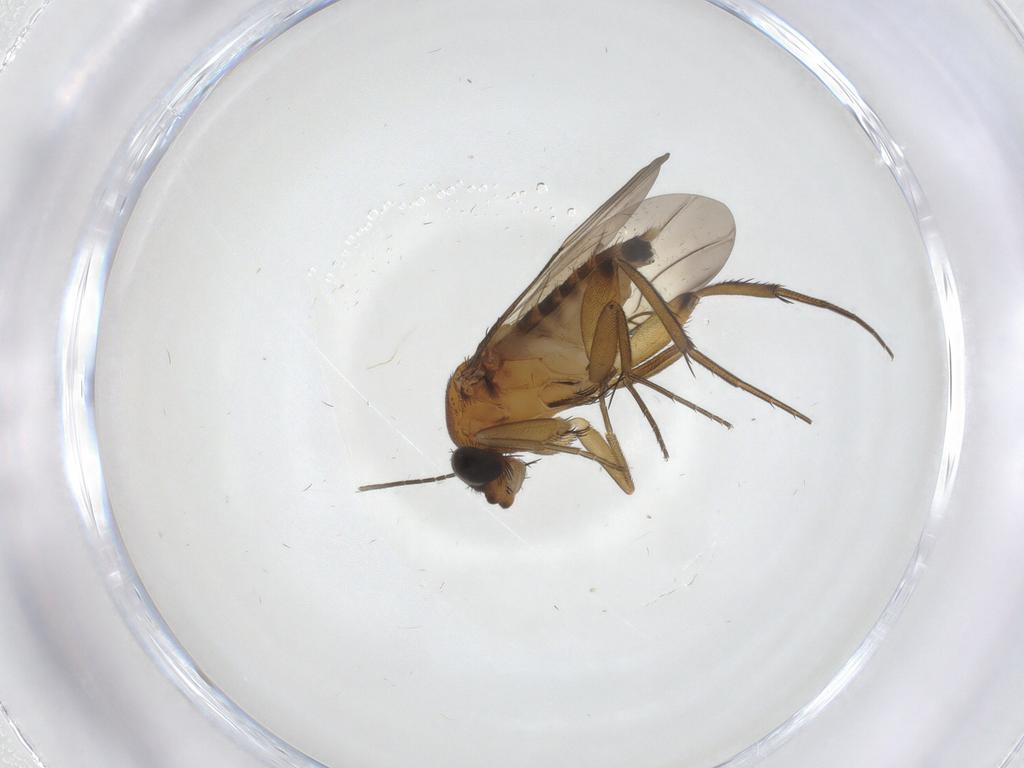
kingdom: Animalia
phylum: Arthropoda
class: Insecta
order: Diptera
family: Phoridae
